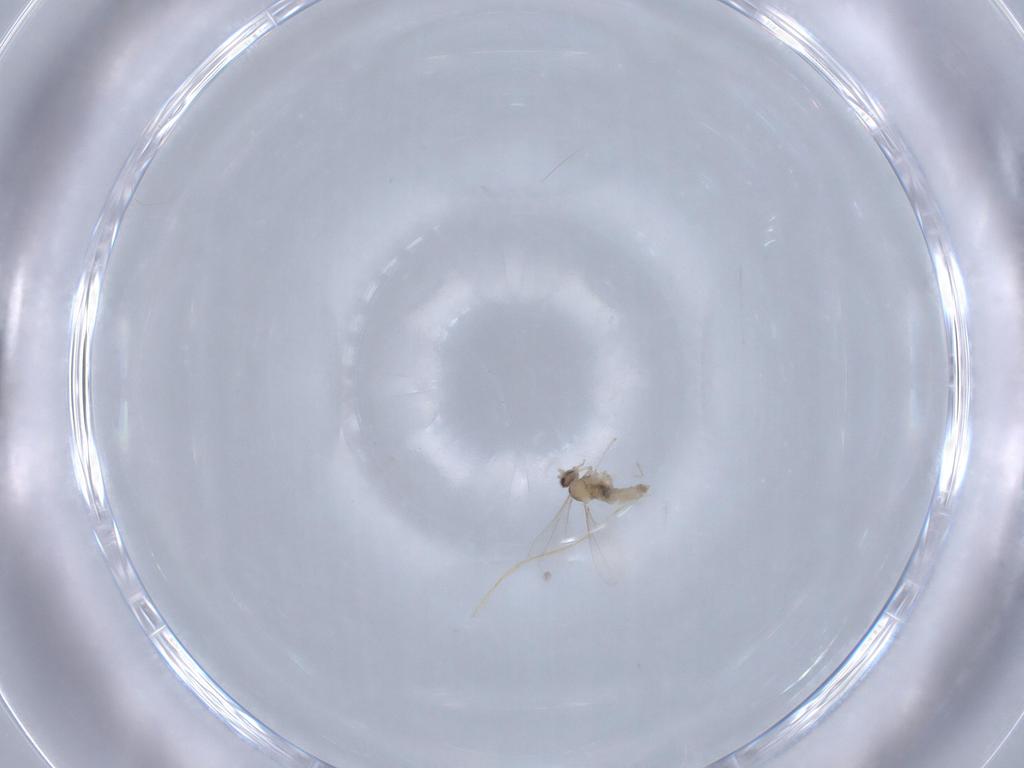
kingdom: Animalia
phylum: Arthropoda
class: Insecta
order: Diptera
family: Cecidomyiidae
